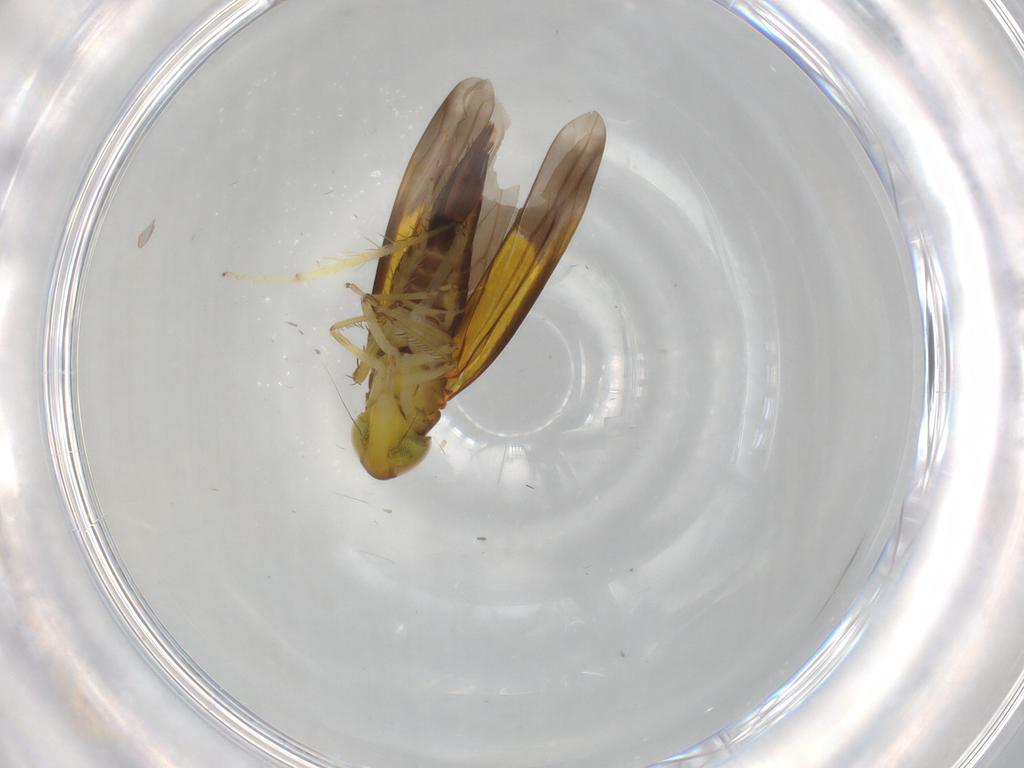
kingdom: Animalia
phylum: Arthropoda
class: Insecta
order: Hemiptera
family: Cicadellidae
